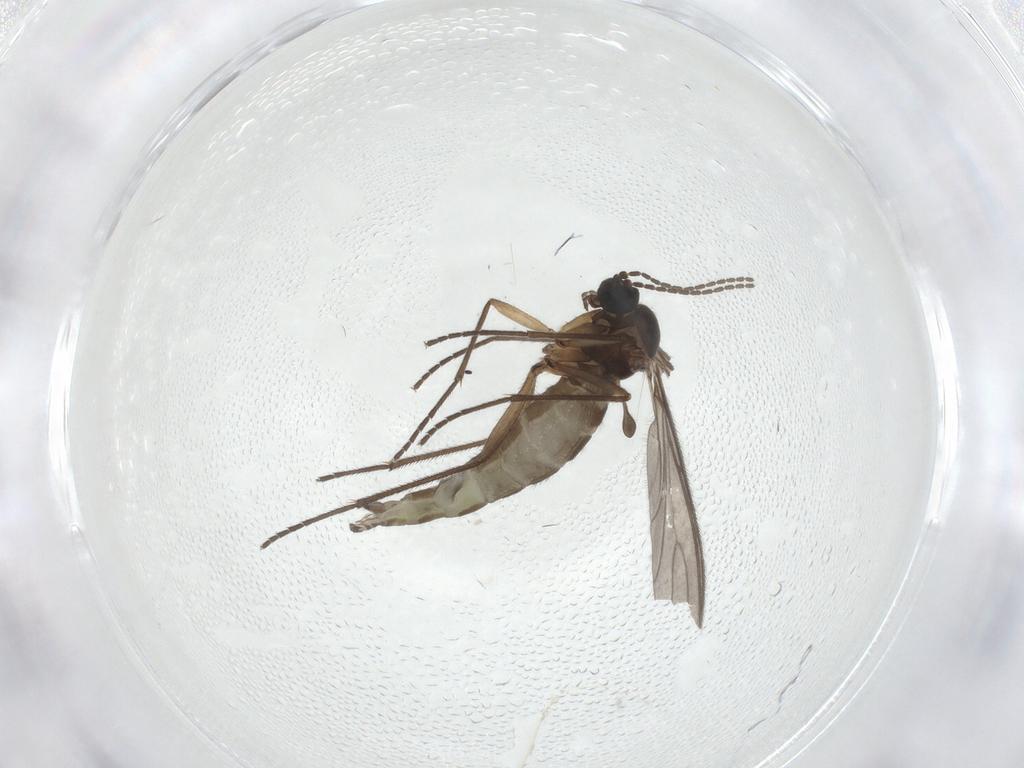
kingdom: Animalia
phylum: Arthropoda
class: Insecta
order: Diptera
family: Sciaridae
